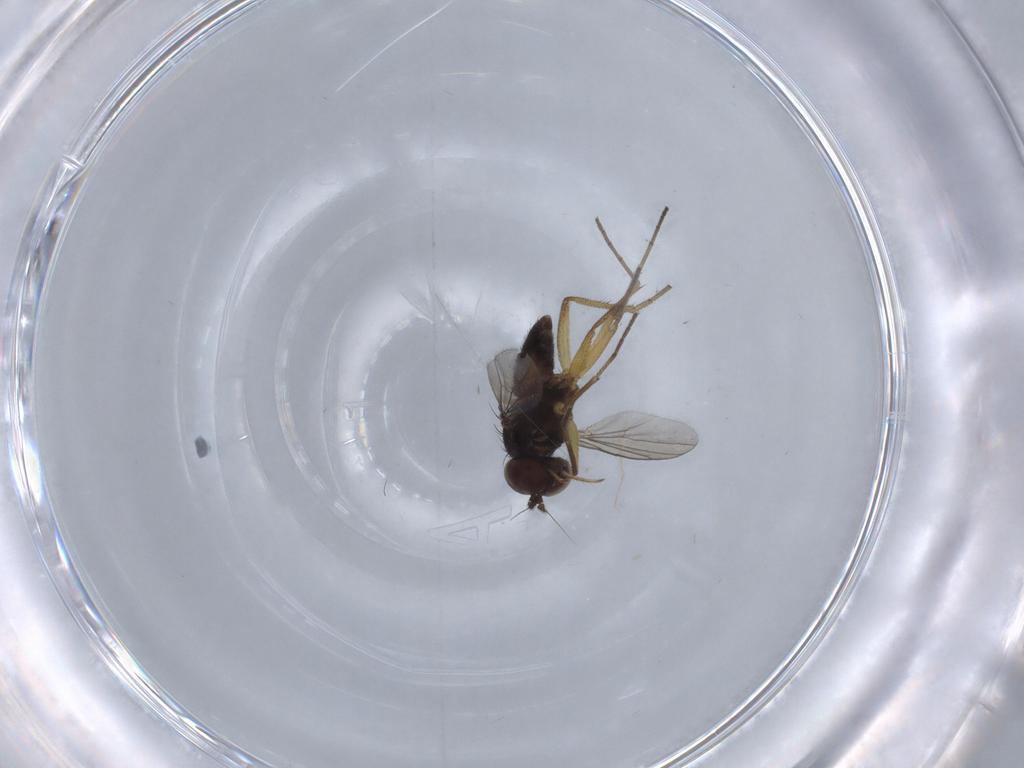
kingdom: Animalia
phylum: Arthropoda
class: Insecta
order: Diptera
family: Dolichopodidae
